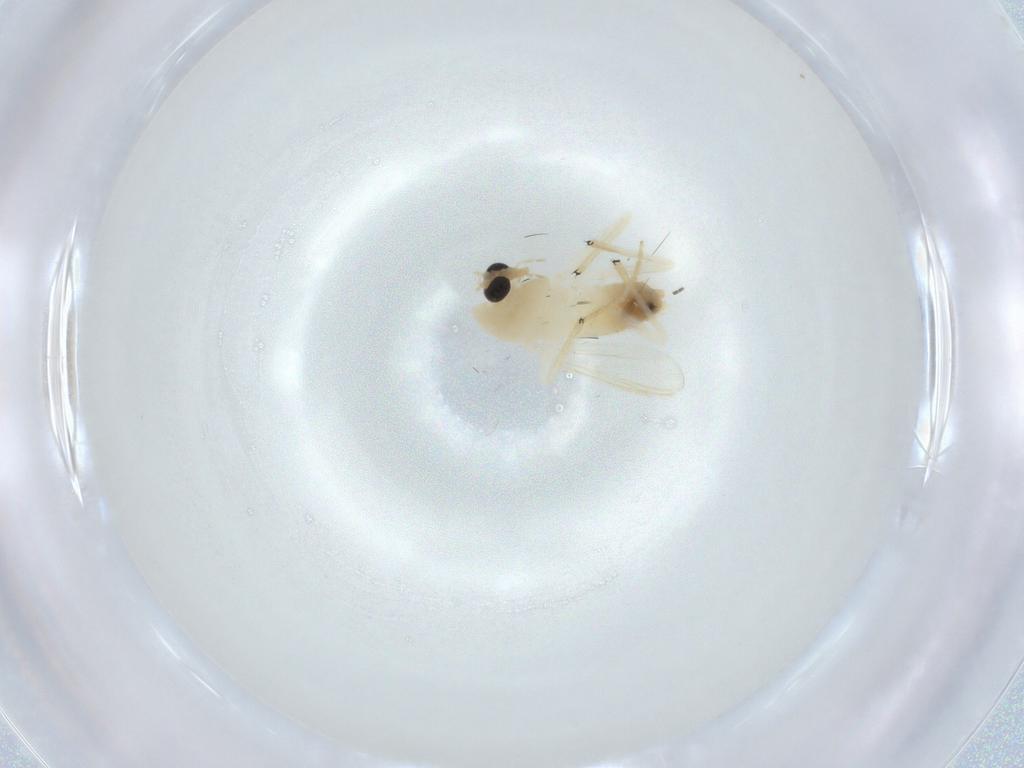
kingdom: Animalia
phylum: Arthropoda
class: Insecta
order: Diptera
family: Chironomidae
